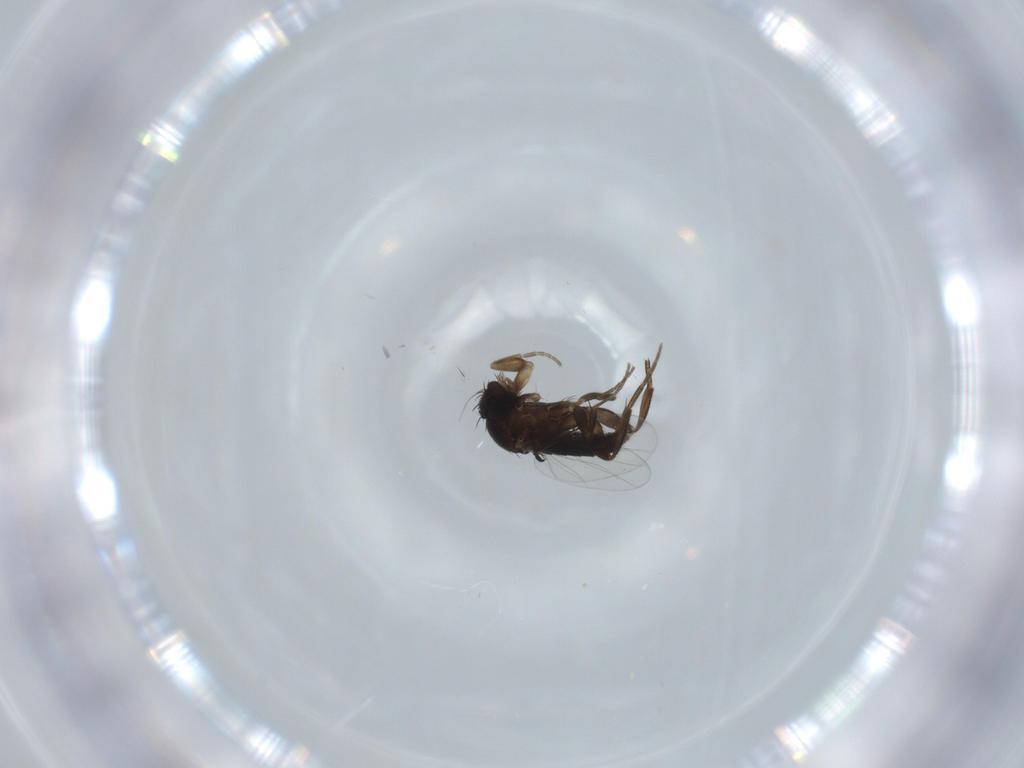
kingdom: Animalia
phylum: Arthropoda
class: Insecta
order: Diptera
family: Phoridae
